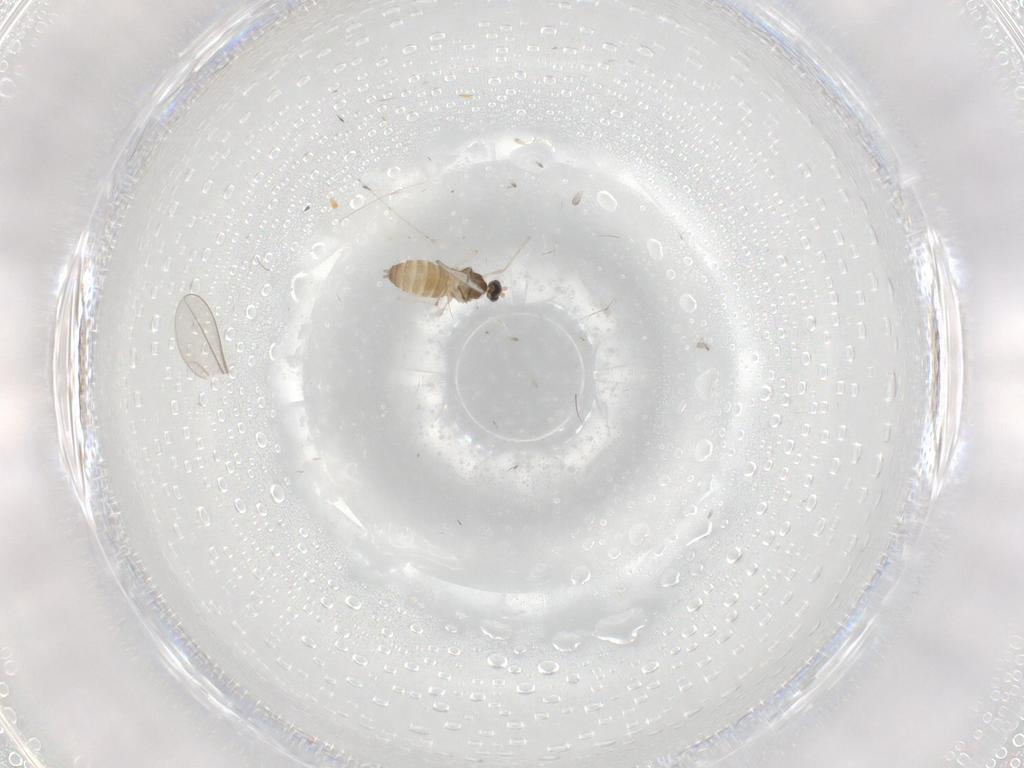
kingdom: Animalia
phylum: Arthropoda
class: Insecta
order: Diptera
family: Cecidomyiidae
